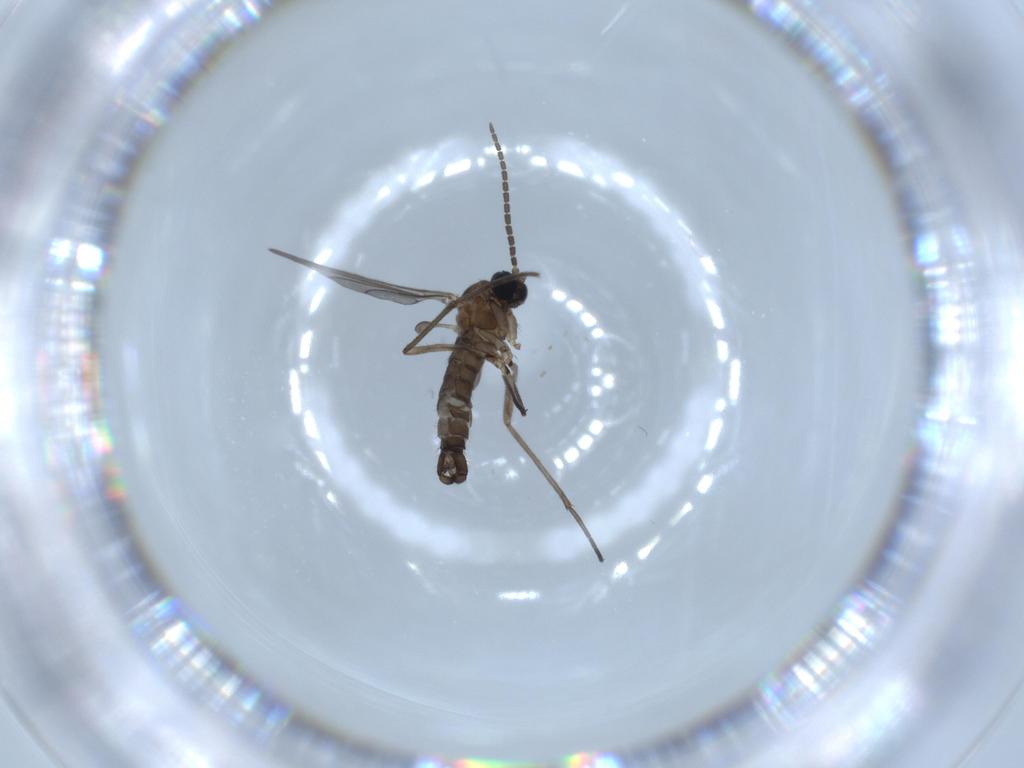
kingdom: Animalia
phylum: Arthropoda
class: Insecta
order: Diptera
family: Sciaridae
